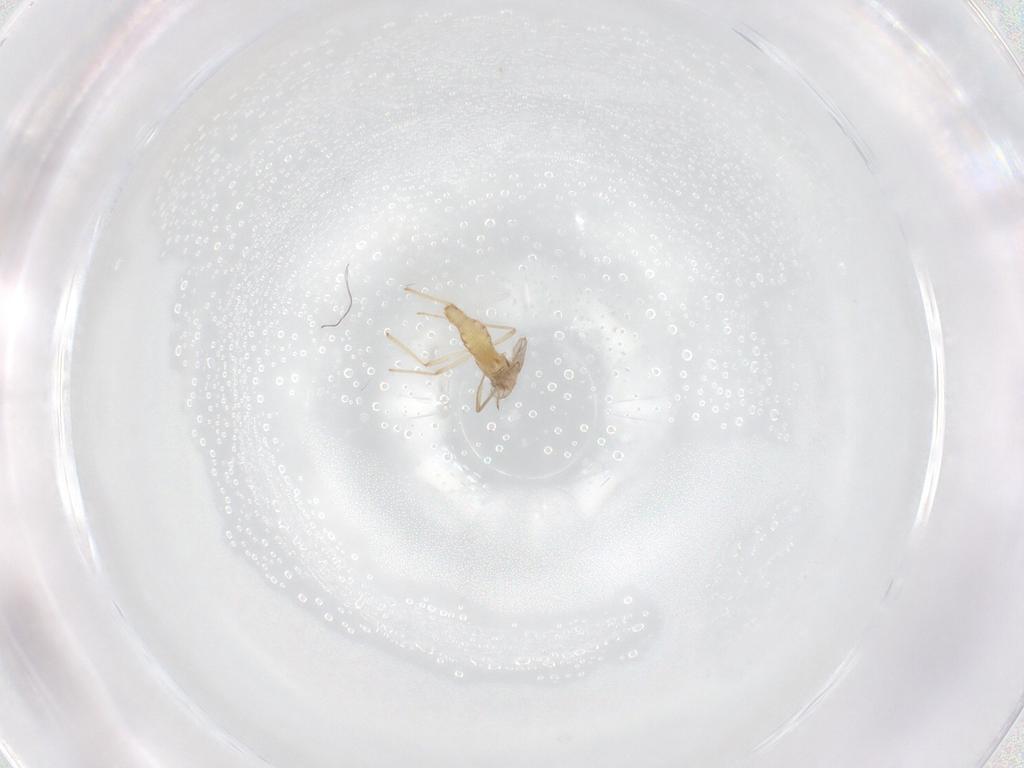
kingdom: Animalia
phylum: Arthropoda
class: Insecta
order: Diptera
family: Chironomidae
